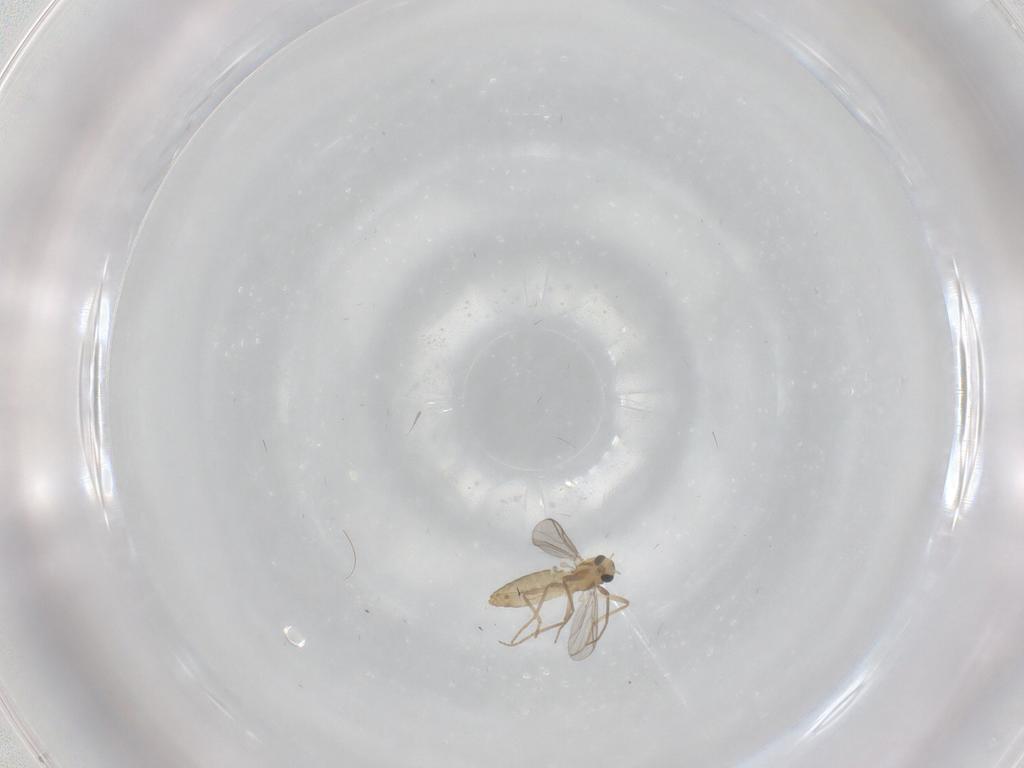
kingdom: Animalia
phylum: Arthropoda
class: Insecta
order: Diptera
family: Chironomidae
